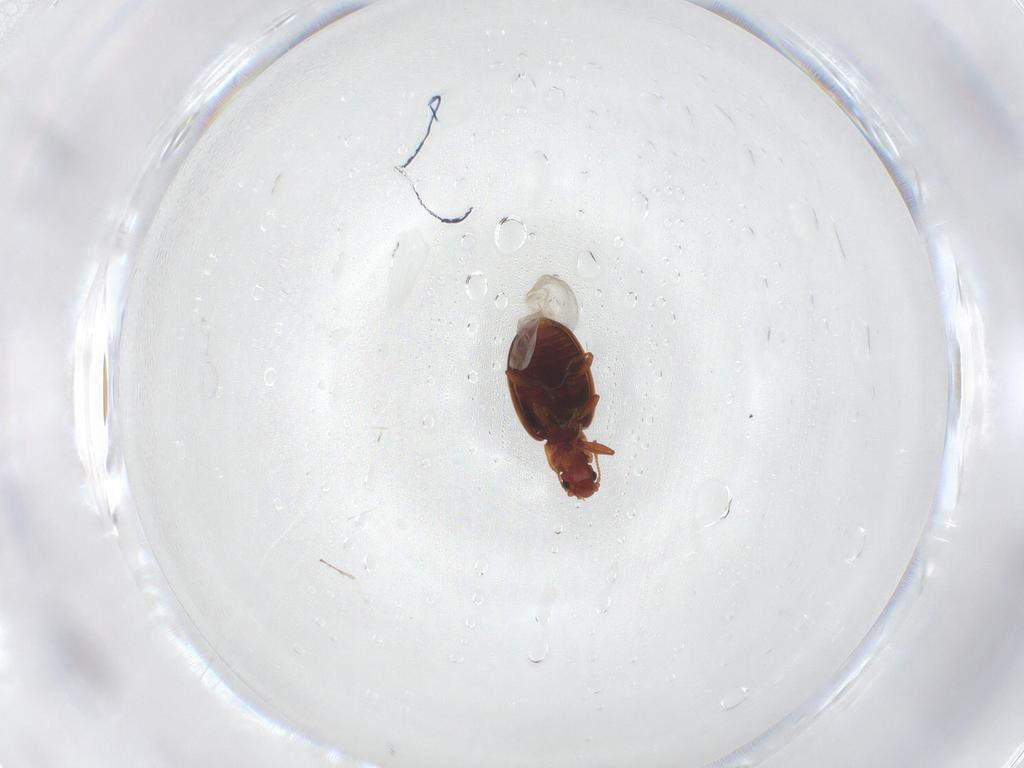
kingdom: Animalia
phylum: Arthropoda
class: Insecta
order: Diptera
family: Ceratopogonidae
